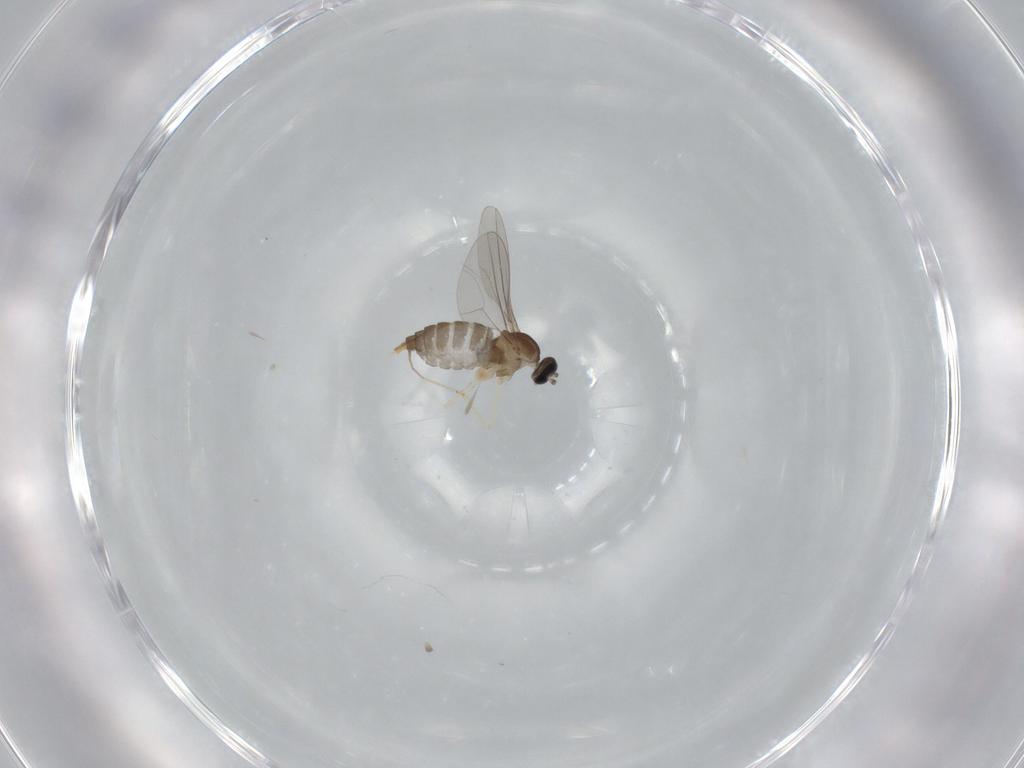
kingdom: Animalia
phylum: Arthropoda
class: Insecta
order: Diptera
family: Cecidomyiidae
